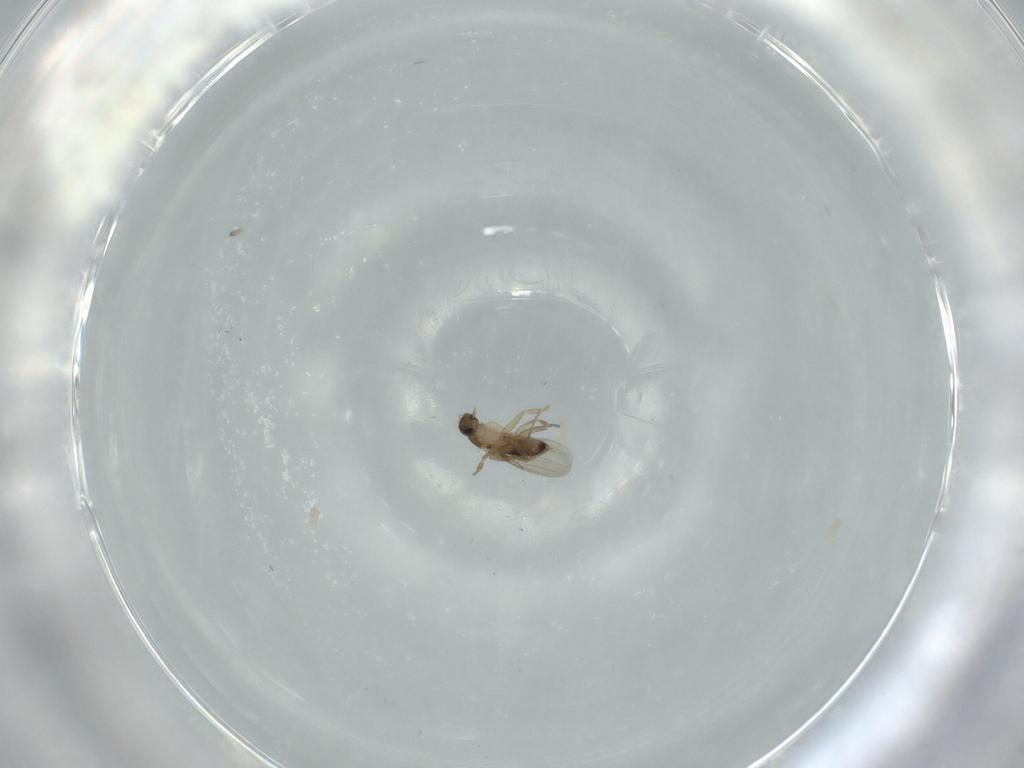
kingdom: Animalia
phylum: Arthropoda
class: Insecta
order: Diptera
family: Phoridae
